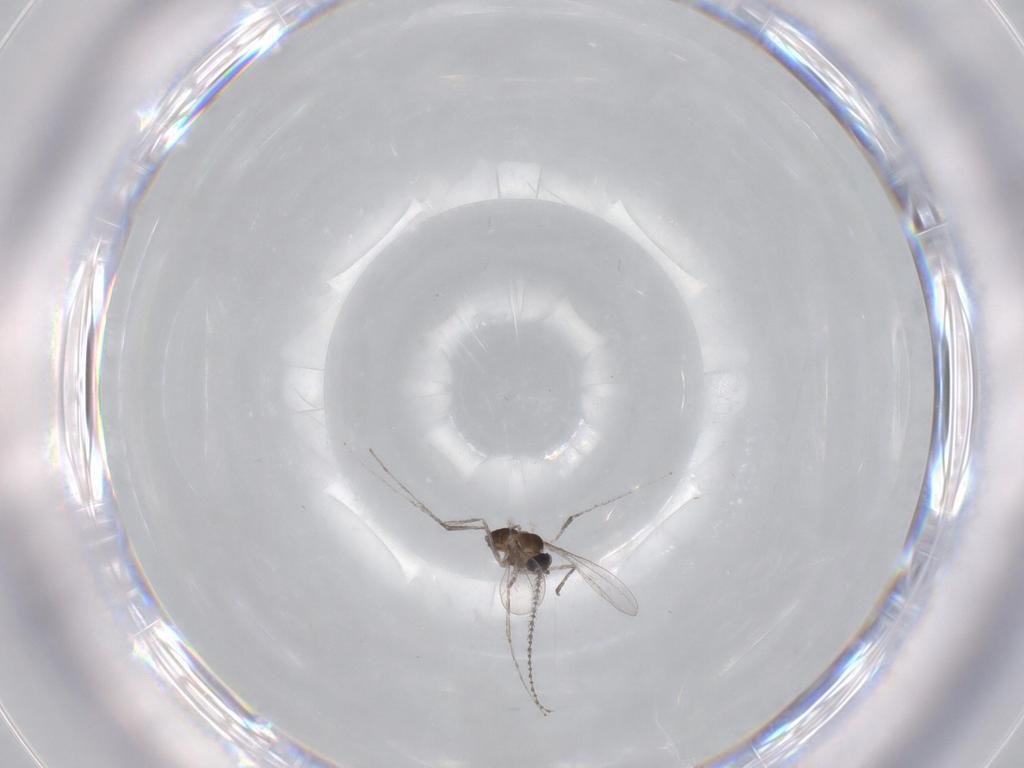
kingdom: Animalia
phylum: Arthropoda
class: Insecta
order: Diptera
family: Cecidomyiidae
